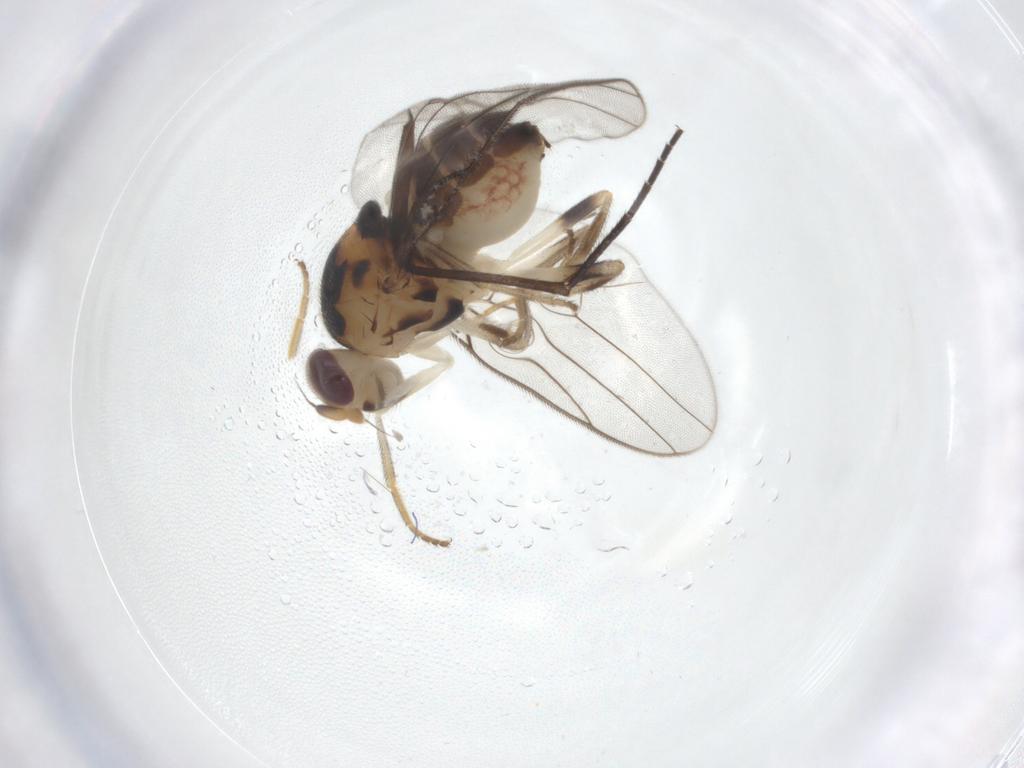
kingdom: Animalia
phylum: Arthropoda
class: Insecta
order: Diptera
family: Chloropidae
